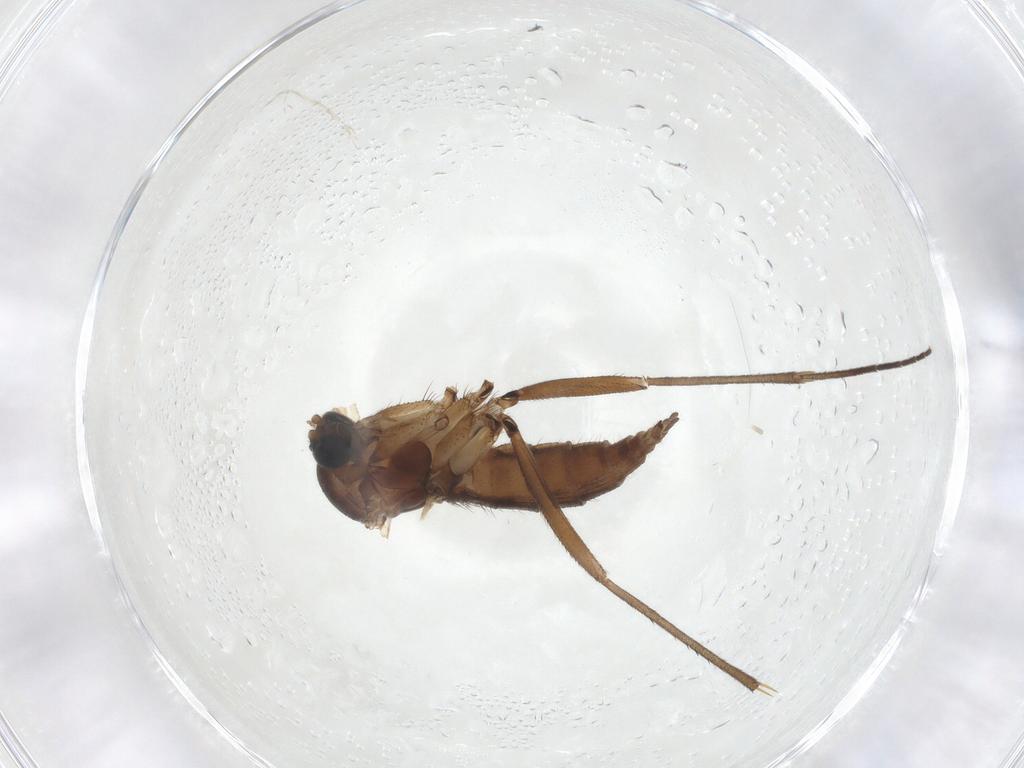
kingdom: Animalia
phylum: Arthropoda
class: Insecta
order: Diptera
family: Sciaridae
